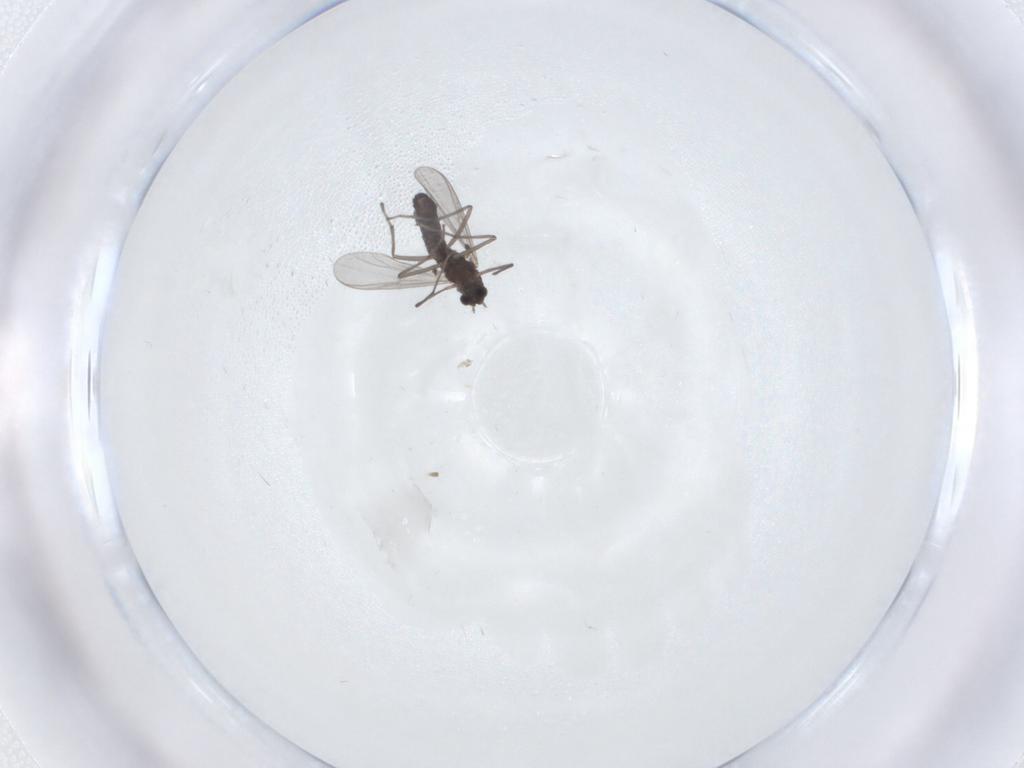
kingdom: Animalia
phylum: Arthropoda
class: Insecta
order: Diptera
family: Chironomidae
